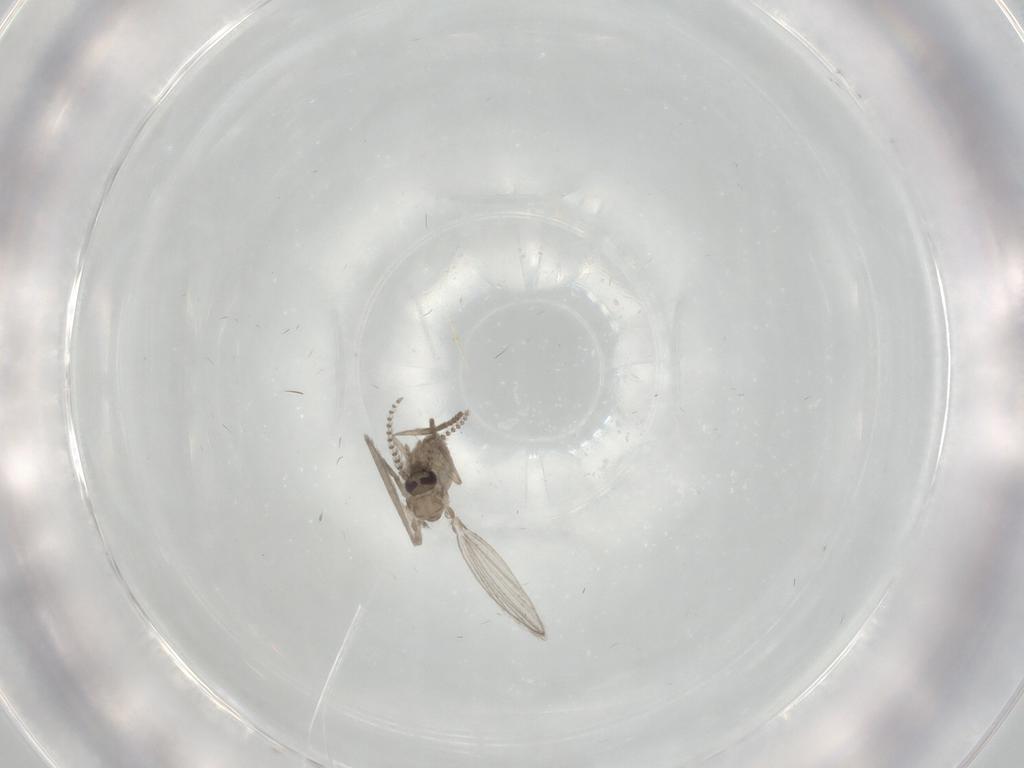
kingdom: Animalia
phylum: Arthropoda
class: Insecta
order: Diptera
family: Psychodidae
